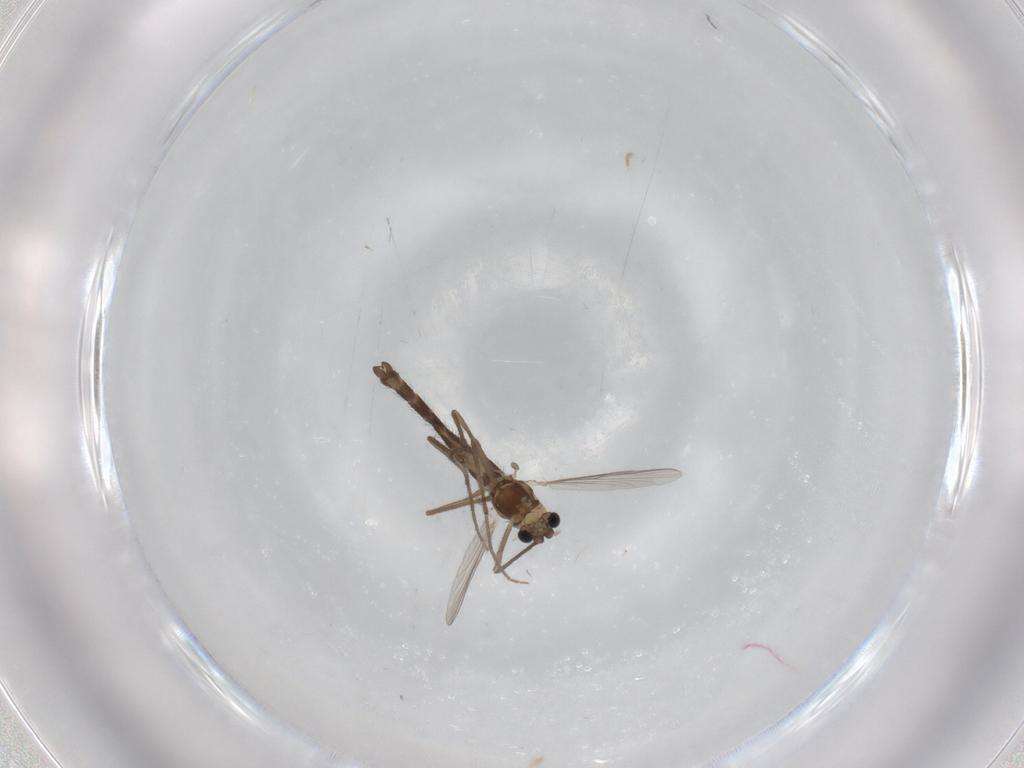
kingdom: Animalia
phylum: Arthropoda
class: Insecta
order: Diptera
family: Chironomidae
